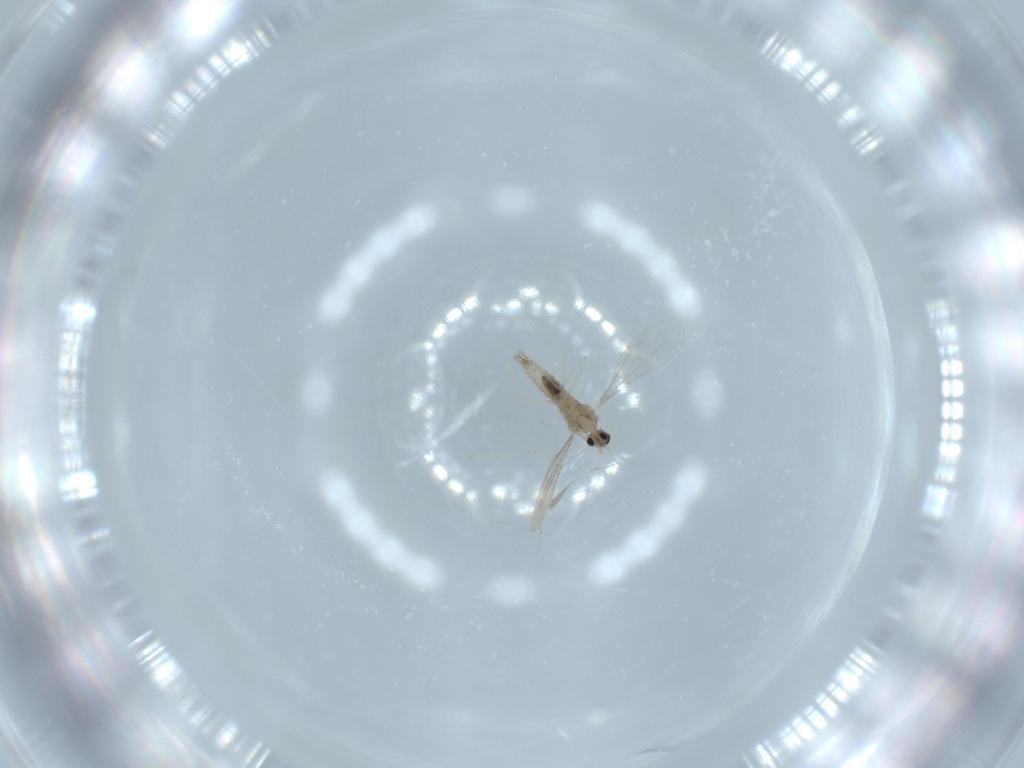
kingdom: Animalia
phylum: Arthropoda
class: Insecta
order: Diptera
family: Cecidomyiidae
